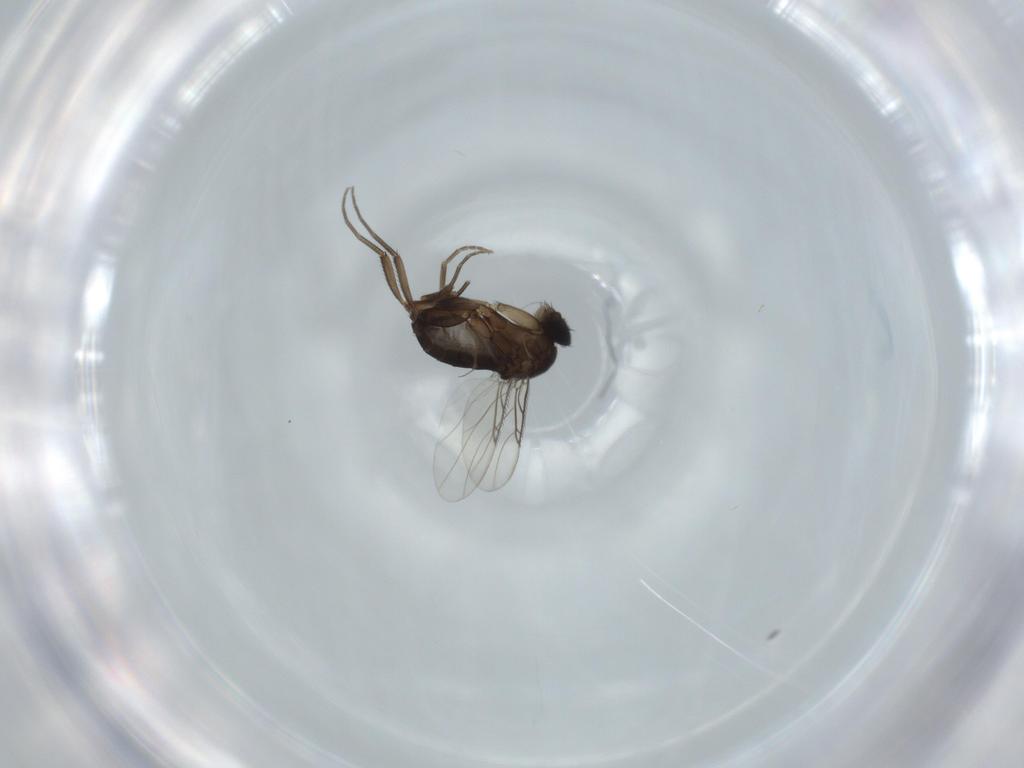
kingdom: Animalia
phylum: Arthropoda
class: Insecta
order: Diptera
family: Phoridae
